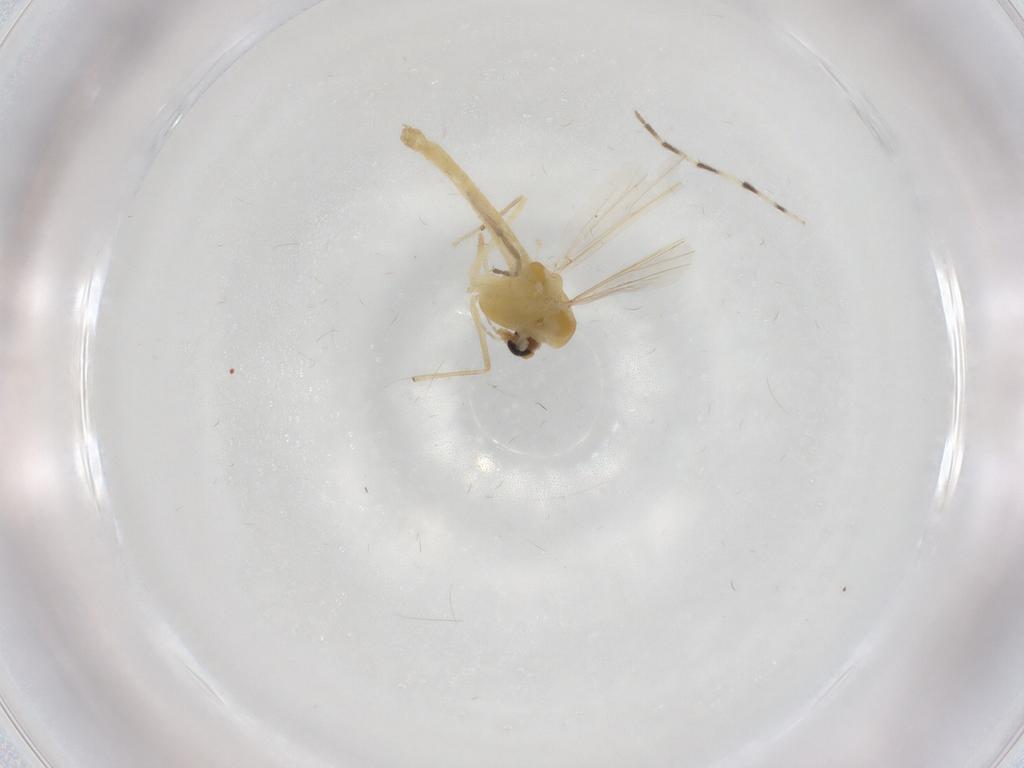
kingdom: Animalia
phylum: Arthropoda
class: Insecta
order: Diptera
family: Chironomidae
